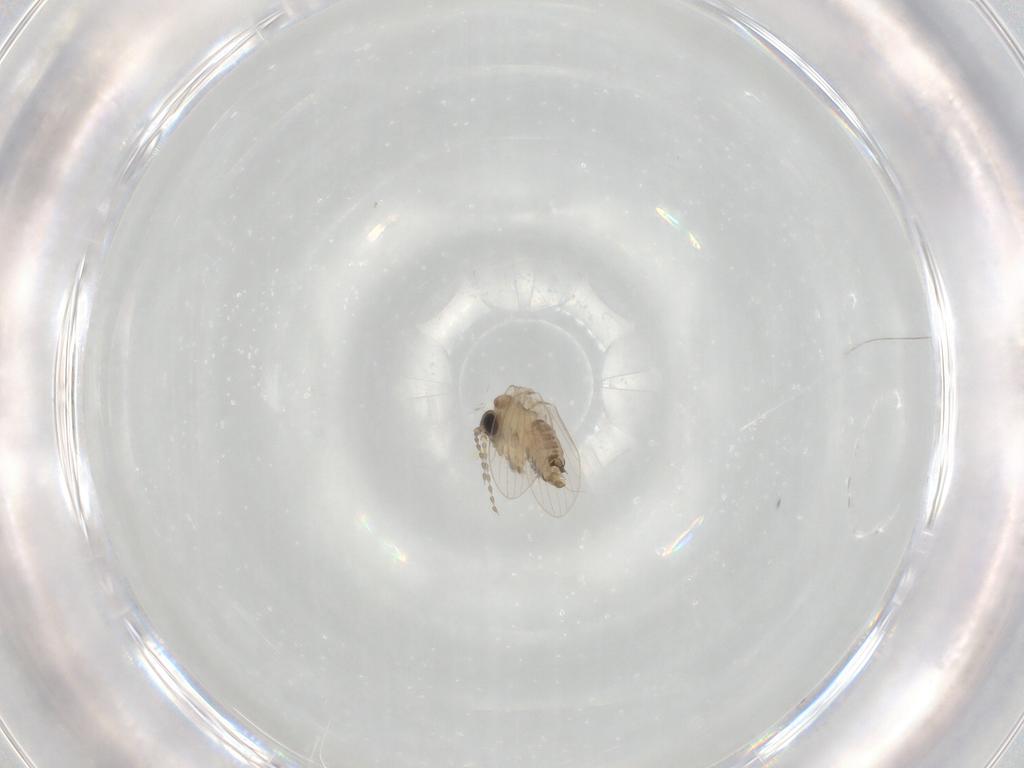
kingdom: Animalia
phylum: Arthropoda
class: Insecta
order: Diptera
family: Psychodidae
